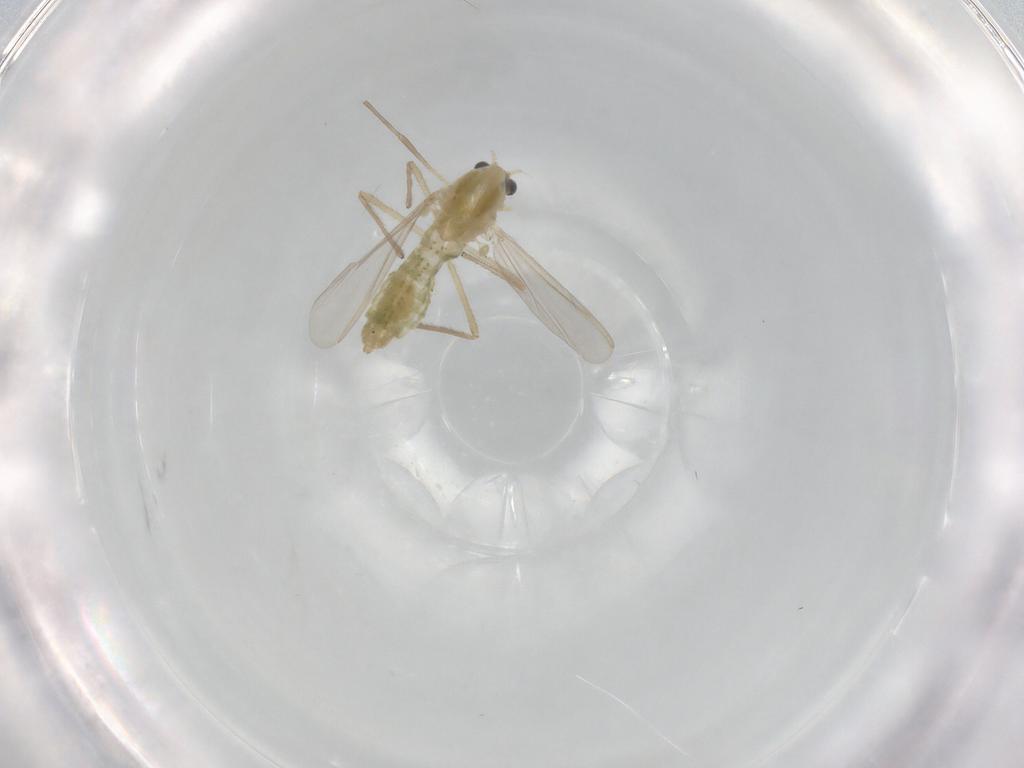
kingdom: Animalia
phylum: Arthropoda
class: Insecta
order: Diptera
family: Chironomidae
